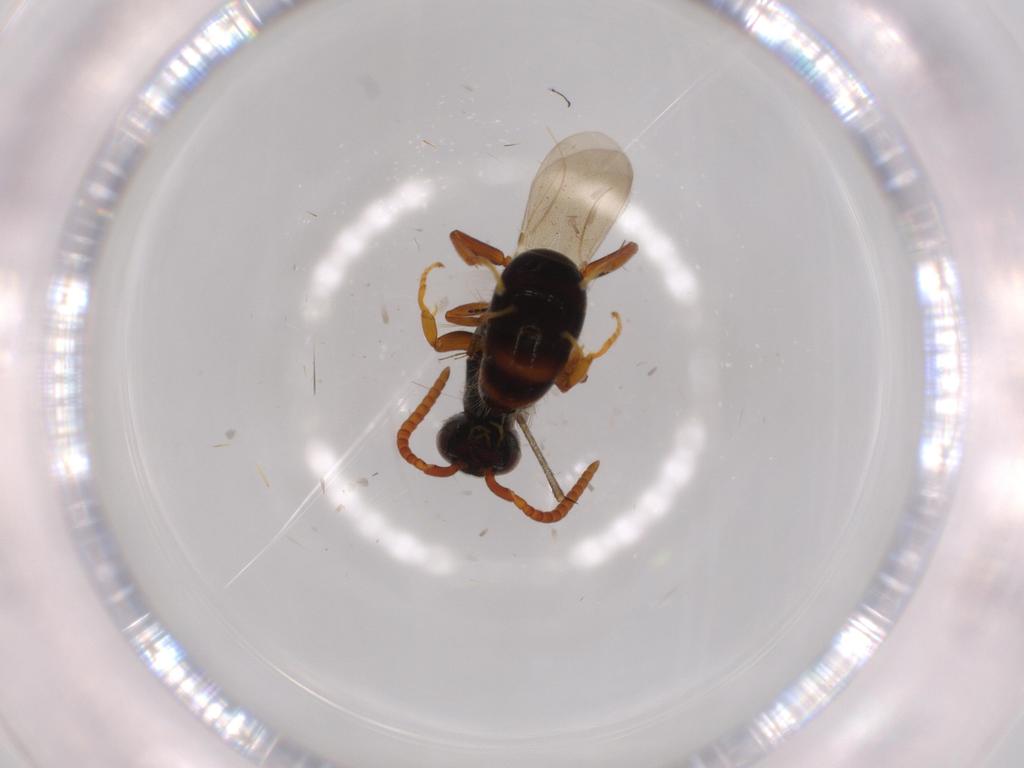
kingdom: Animalia
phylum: Arthropoda
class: Insecta
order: Hymenoptera
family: Bethylidae
